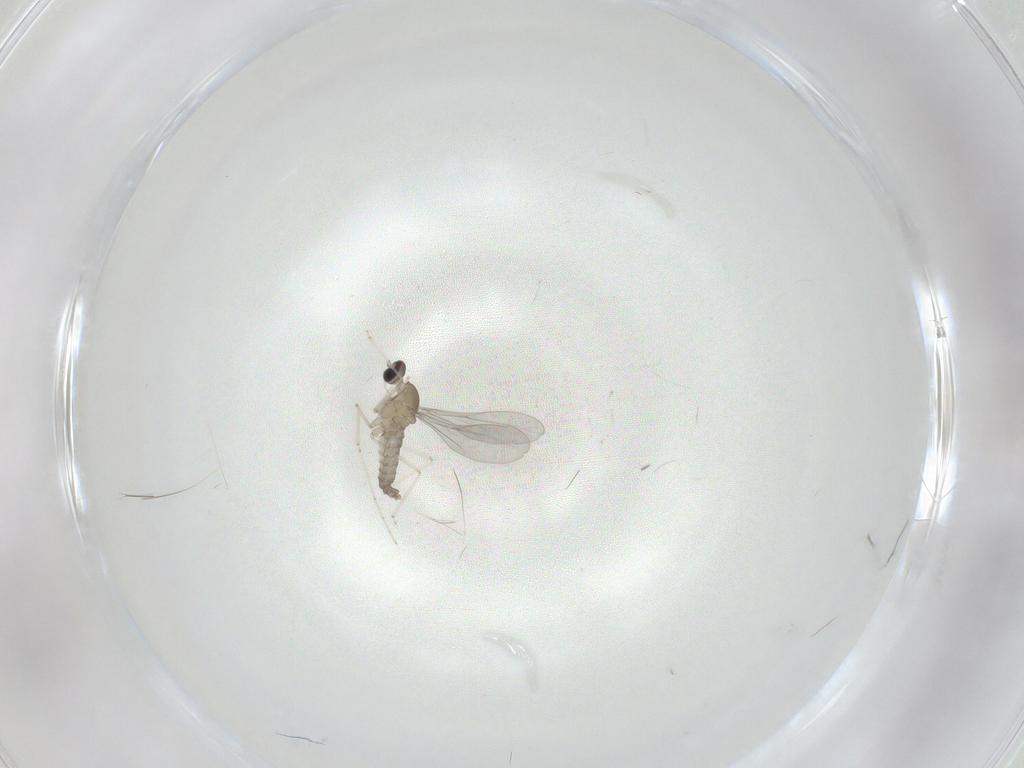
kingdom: Animalia
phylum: Arthropoda
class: Insecta
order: Diptera
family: Cecidomyiidae
